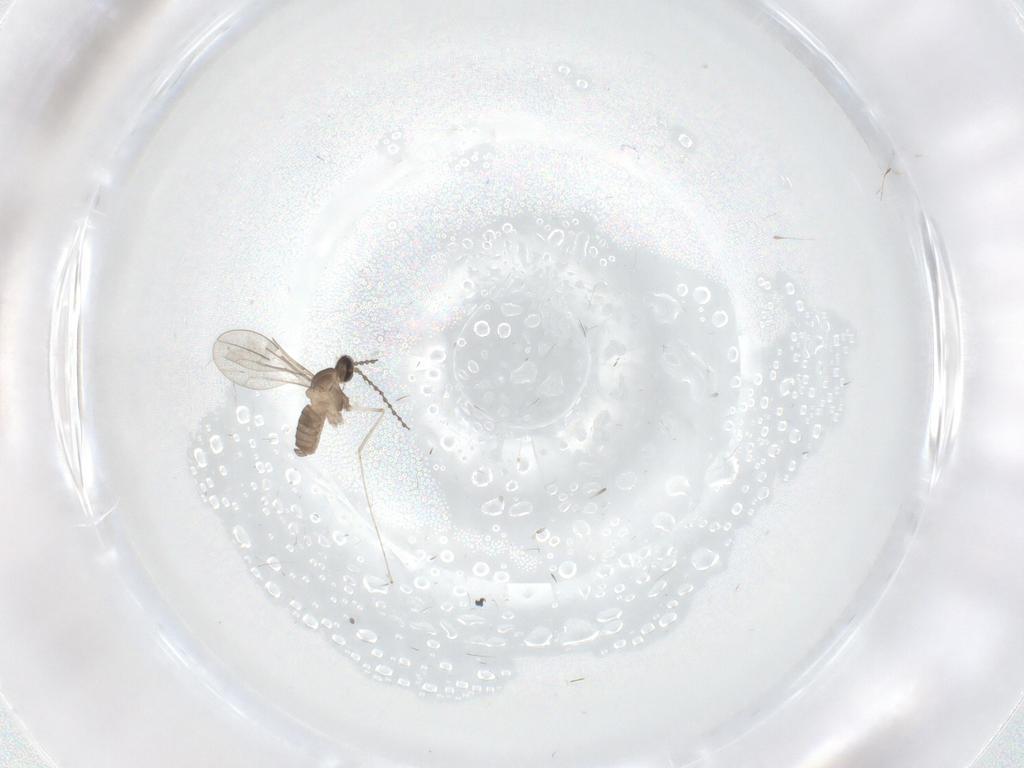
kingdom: Animalia
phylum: Arthropoda
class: Insecta
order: Diptera
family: Psychodidae
